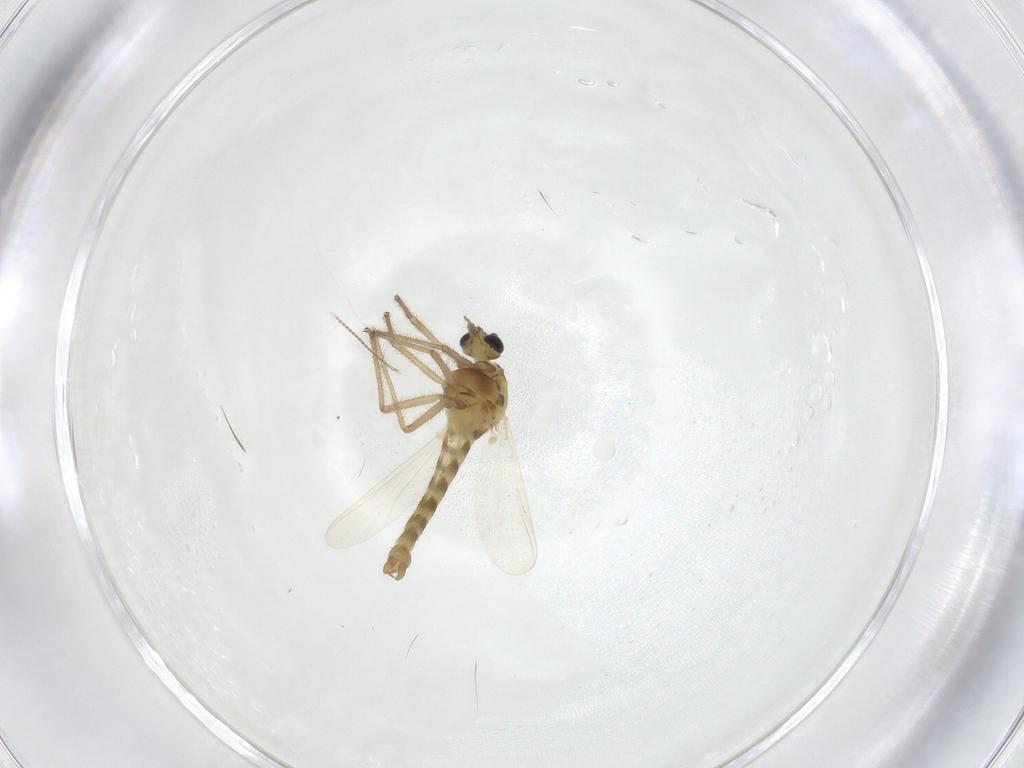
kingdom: Animalia
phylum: Arthropoda
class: Insecta
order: Diptera
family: Chironomidae
